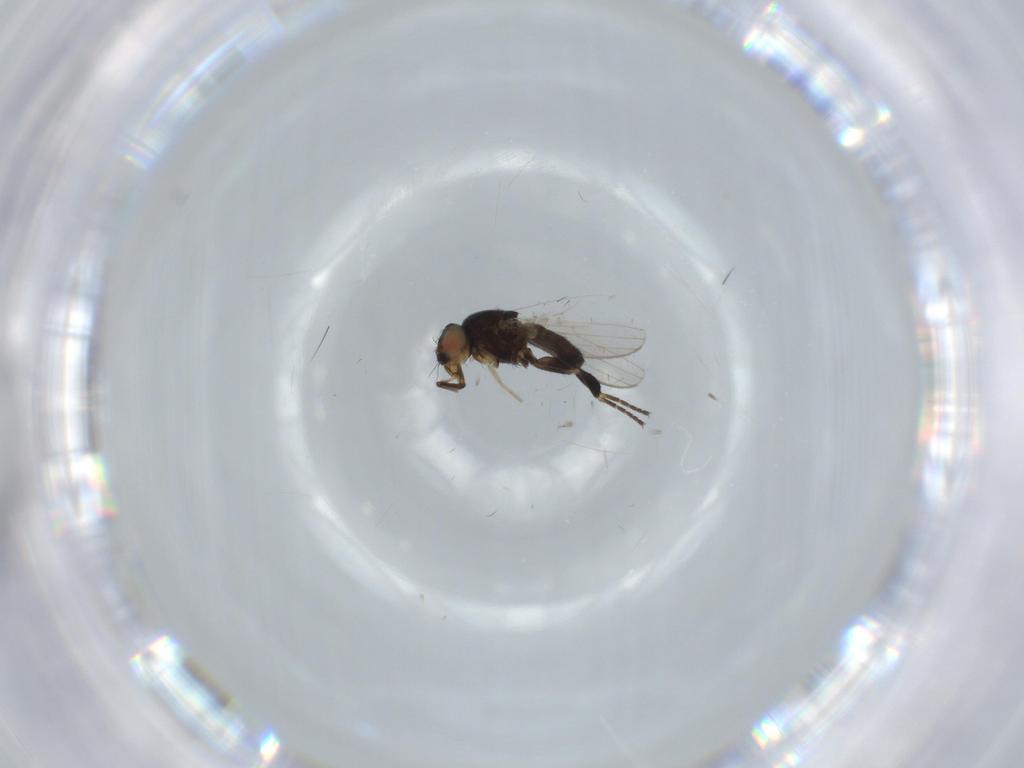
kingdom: Animalia
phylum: Arthropoda
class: Insecta
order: Diptera
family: Milichiidae
